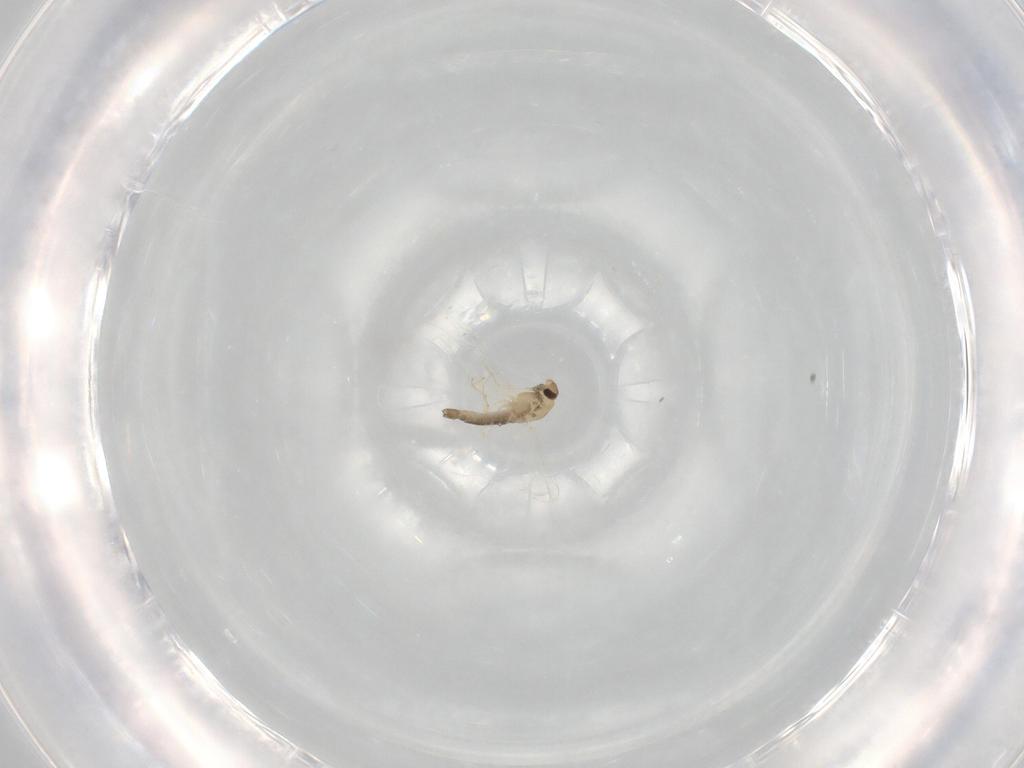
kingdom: Animalia
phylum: Arthropoda
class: Insecta
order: Diptera
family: Chironomidae
